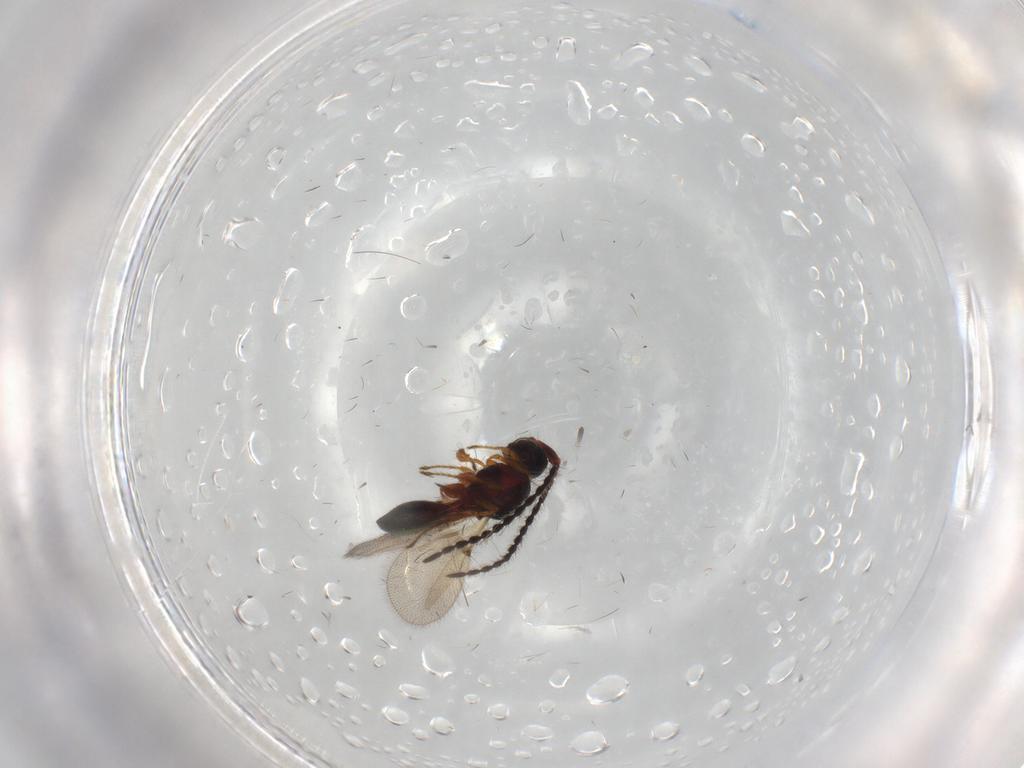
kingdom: Animalia
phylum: Arthropoda
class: Insecta
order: Hymenoptera
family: Diapriidae
